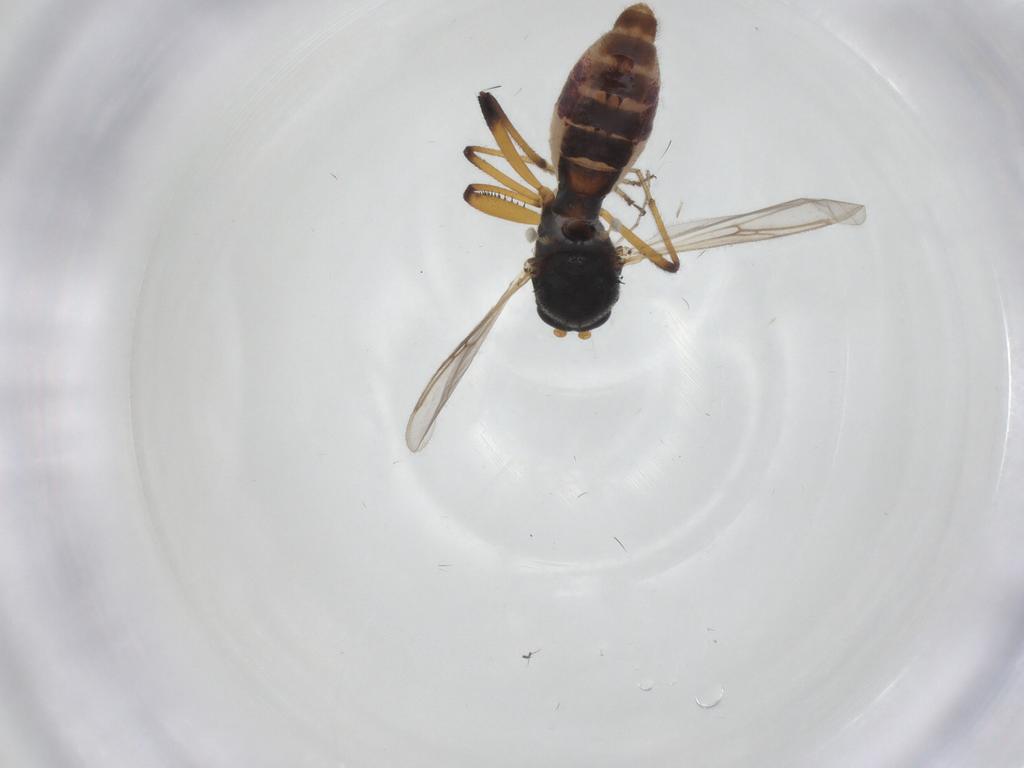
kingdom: Animalia
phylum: Arthropoda
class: Insecta
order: Diptera
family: Ceratopogonidae
